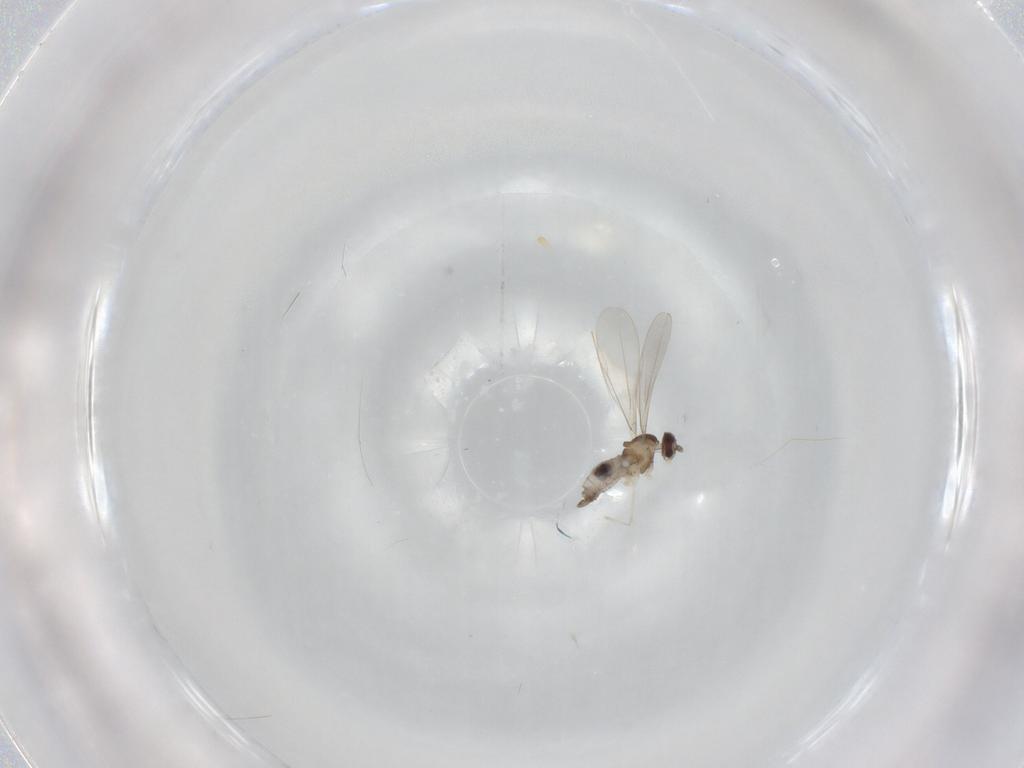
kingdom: Animalia
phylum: Arthropoda
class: Insecta
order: Diptera
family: Cecidomyiidae
